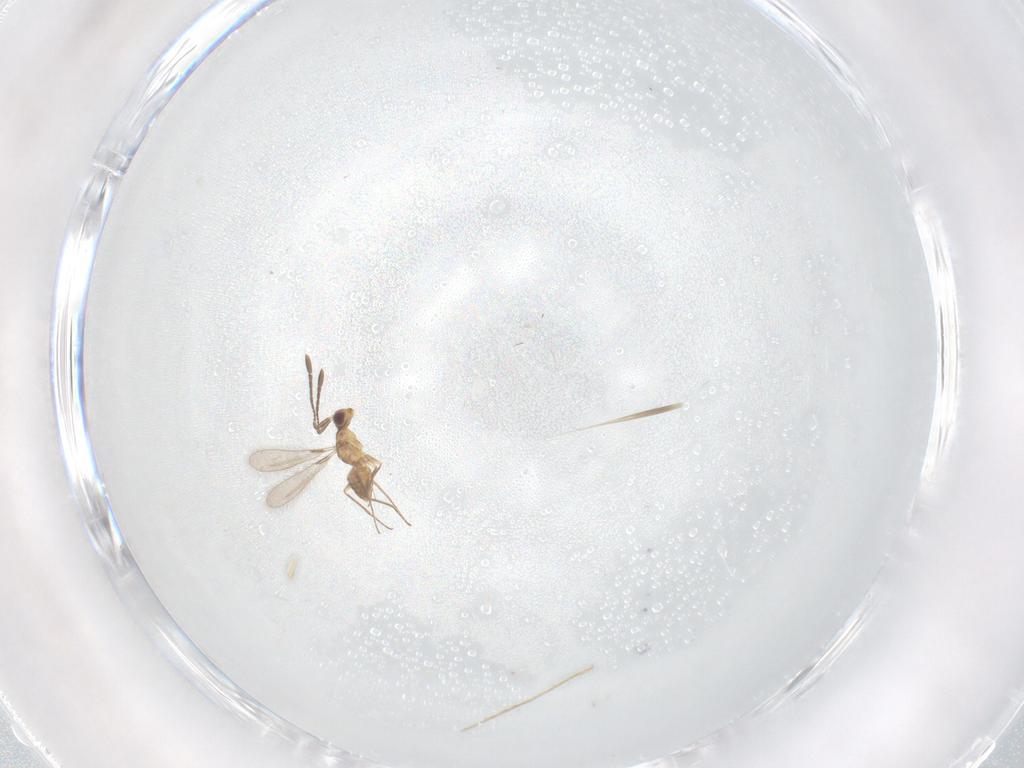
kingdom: Animalia
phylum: Arthropoda
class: Insecta
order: Hymenoptera
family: Mymaridae
